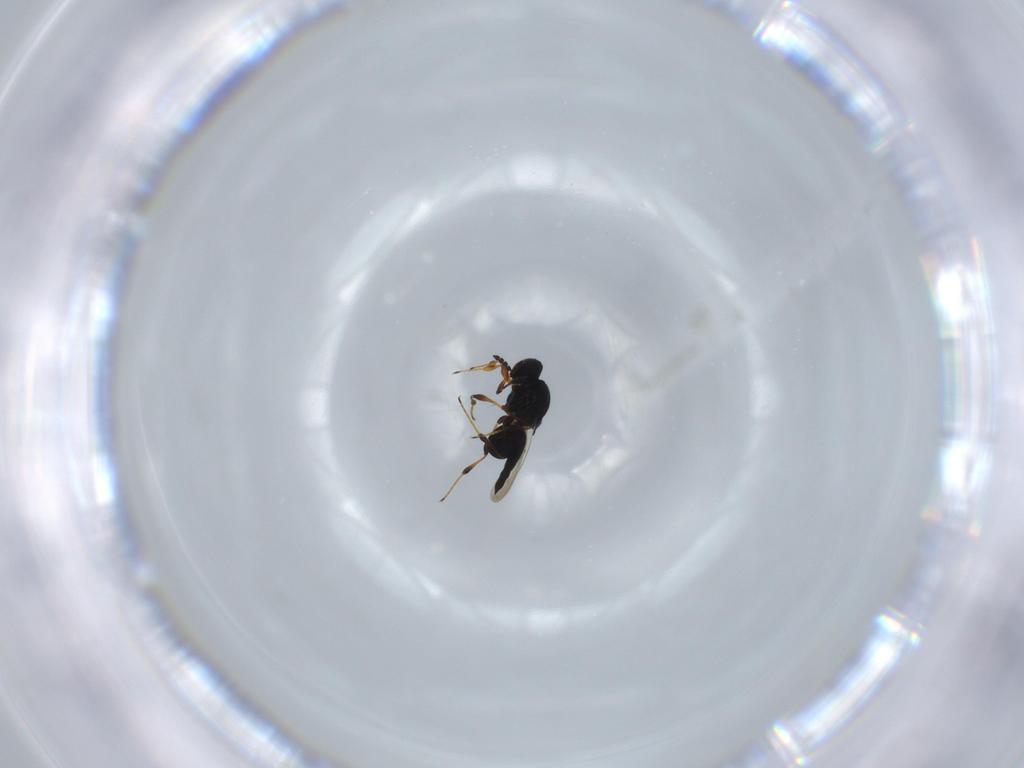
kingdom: Animalia
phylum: Arthropoda
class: Insecta
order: Hymenoptera
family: Platygastridae
